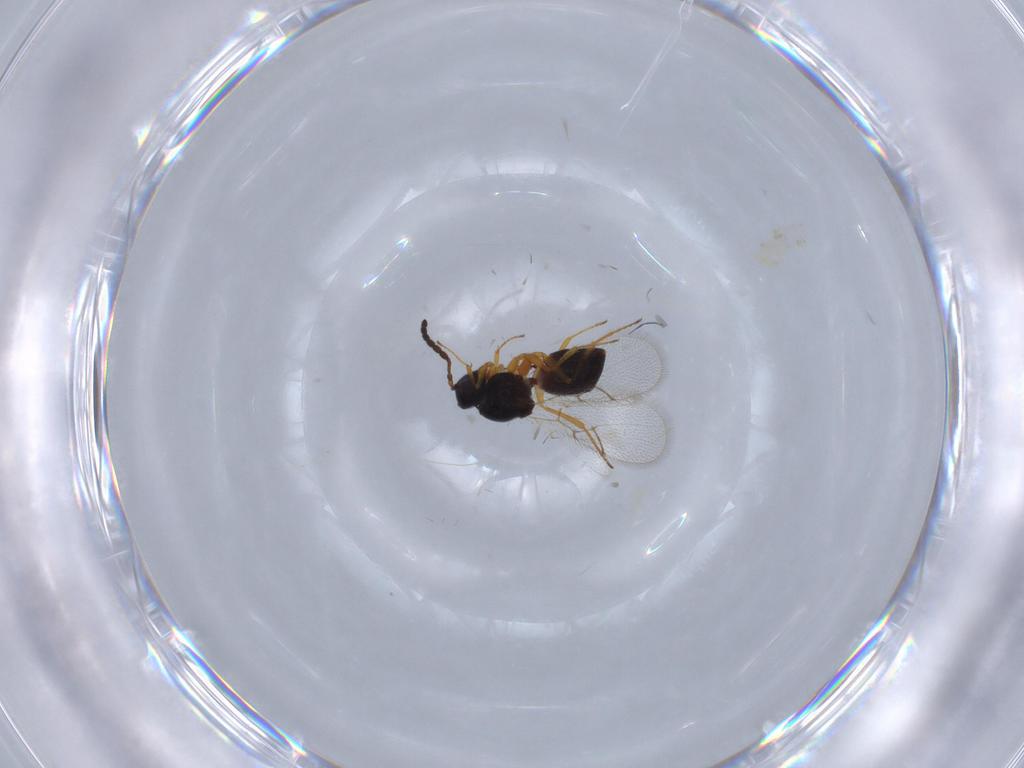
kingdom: Animalia
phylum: Arthropoda
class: Insecta
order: Hymenoptera
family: Figitidae
